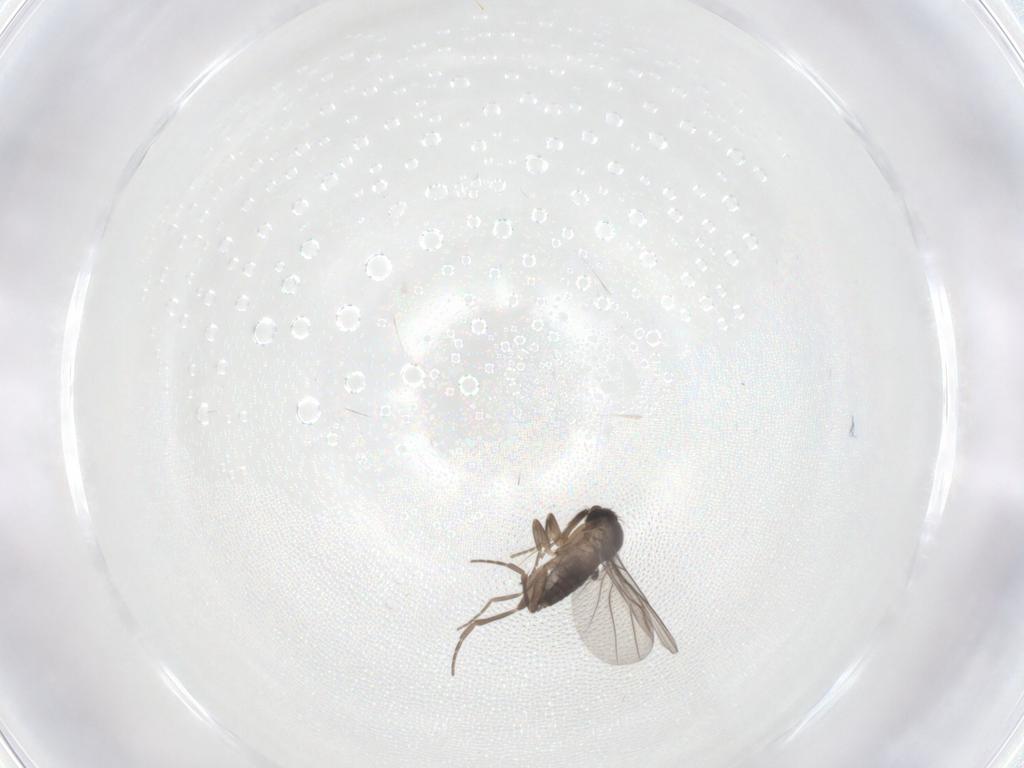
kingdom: Animalia
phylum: Arthropoda
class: Insecta
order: Diptera
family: Phoridae
